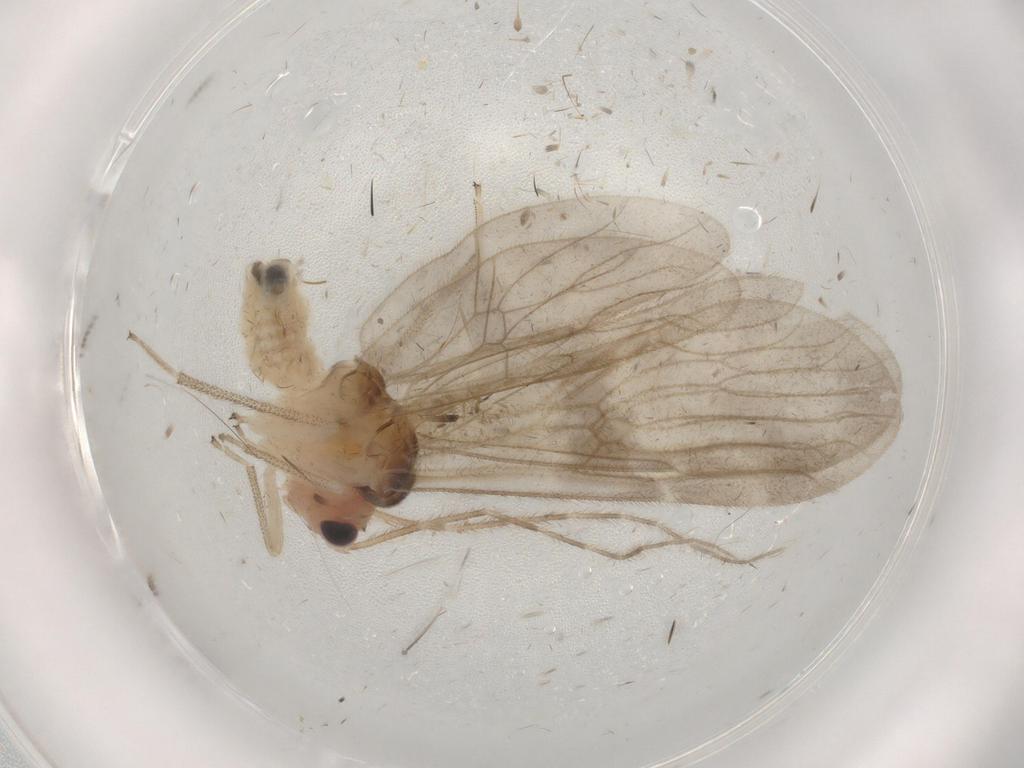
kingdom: Animalia
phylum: Arthropoda
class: Insecta
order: Psocodea
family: Amphipsocidae
